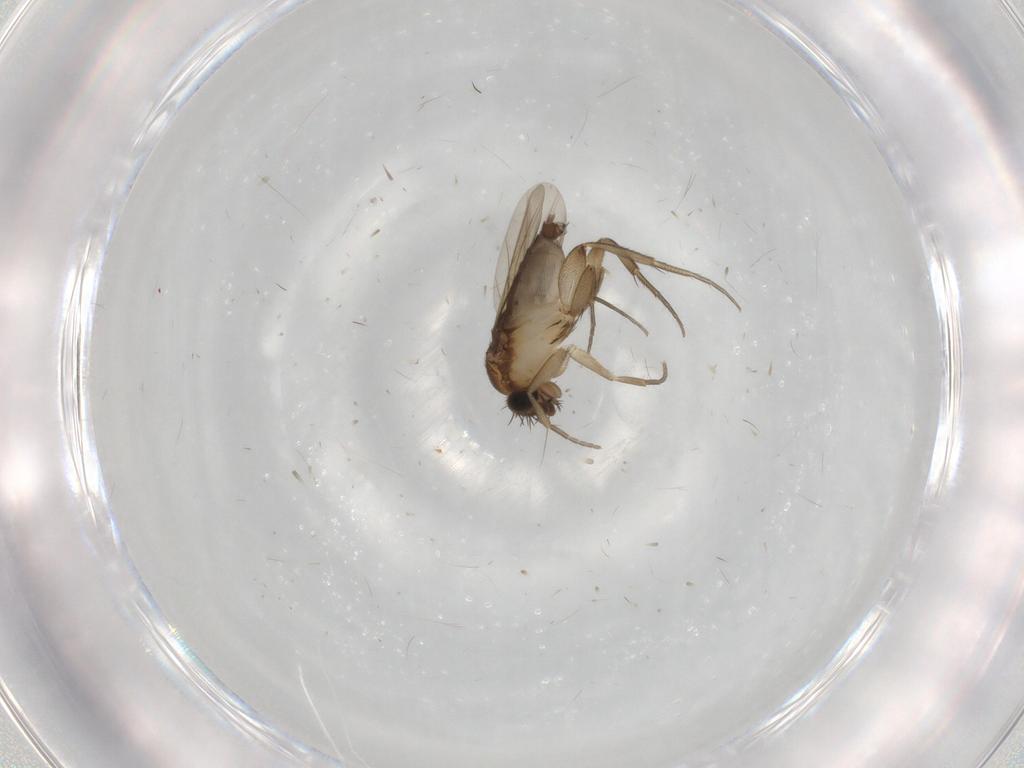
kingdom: Animalia
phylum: Arthropoda
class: Insecta
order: Diptera
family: Phoridae
